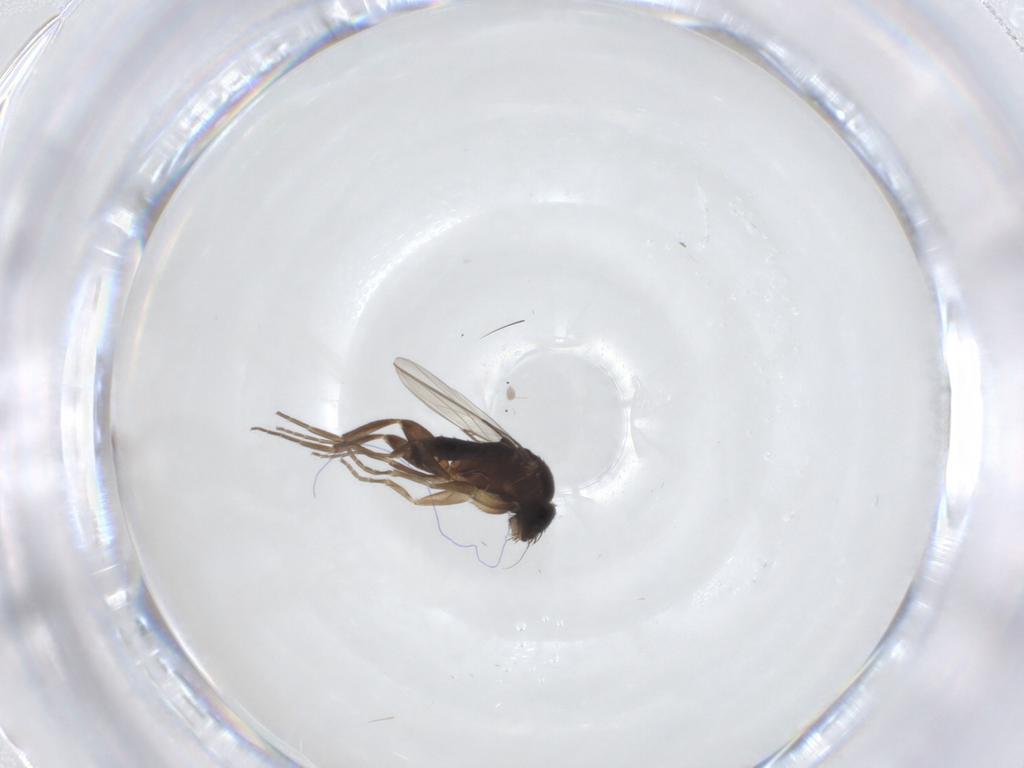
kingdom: Animalia
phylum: Arthropoda
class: Insecta
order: Diptera
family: Phoridae
